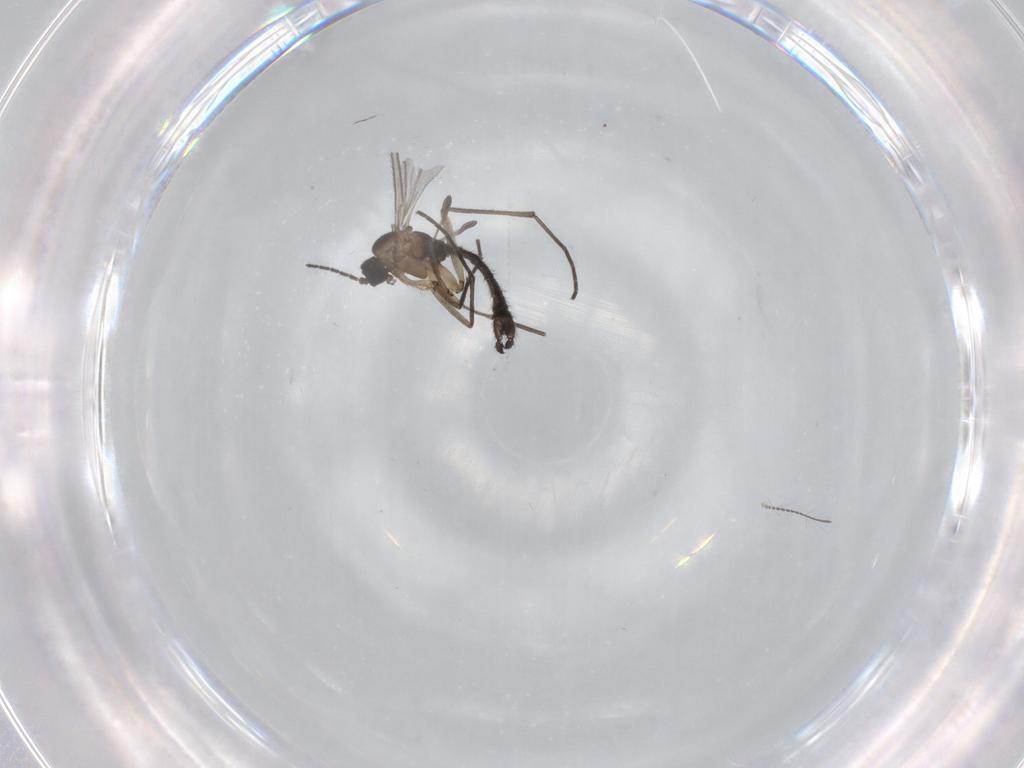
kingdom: Animalia
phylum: Arthropoda
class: Insecta
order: Diptera
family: Sciaridae
